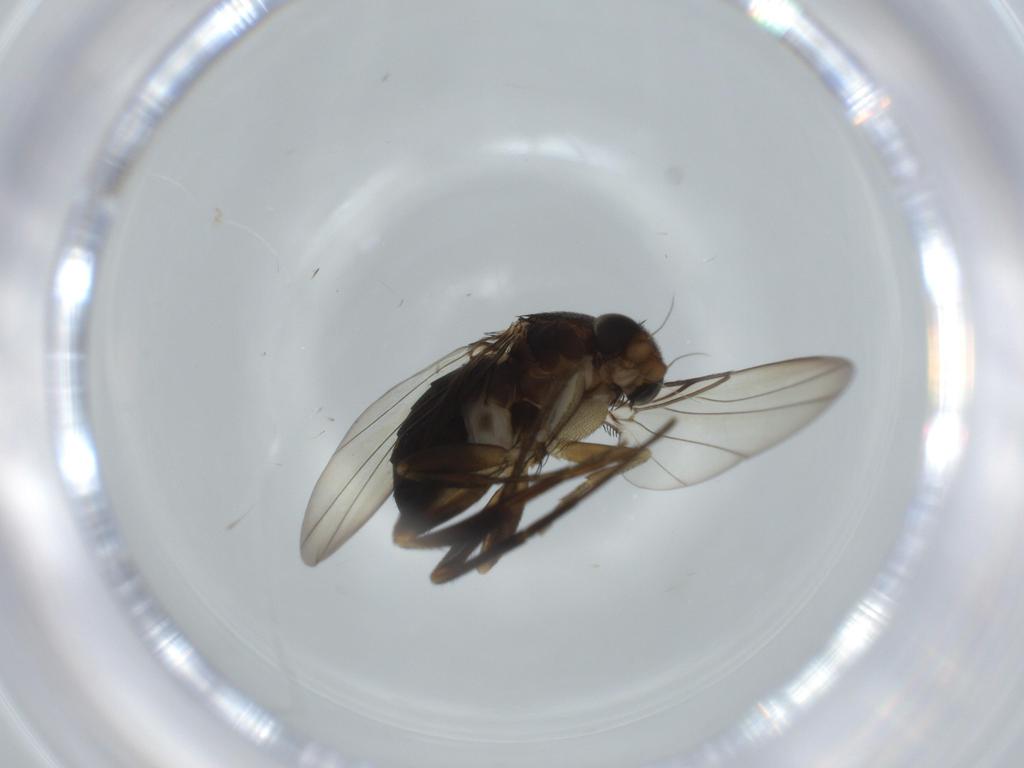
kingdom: Animalia
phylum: Arthropoda
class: Insecta
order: Diptera
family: Phoridae
